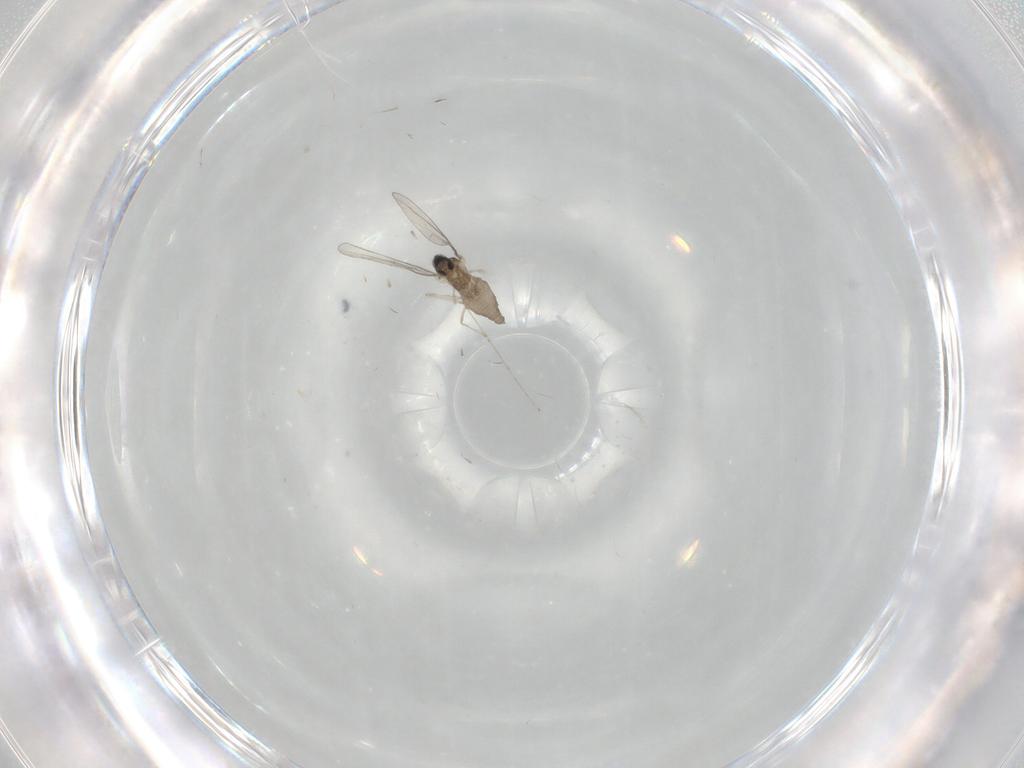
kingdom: Animalia
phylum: Arthropoda
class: Insecta
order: Diptera
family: Cecidomyiidae
